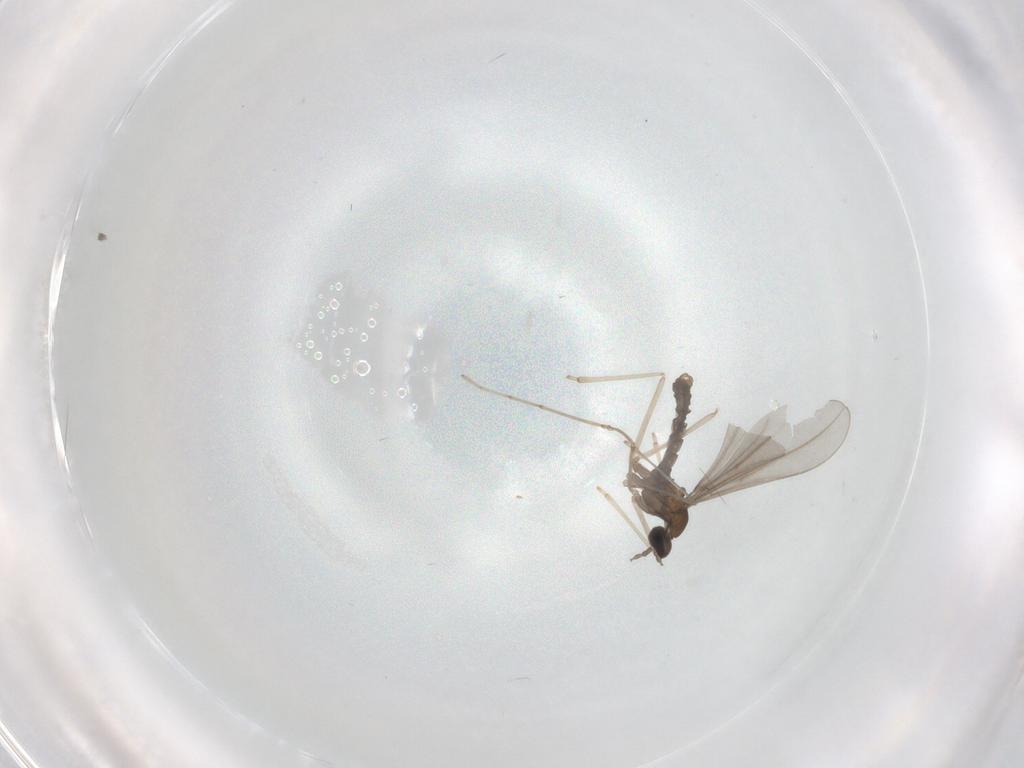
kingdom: Animalia
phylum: Arthropoda
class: Insecta
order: Diptera
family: Cecidomyiidae
